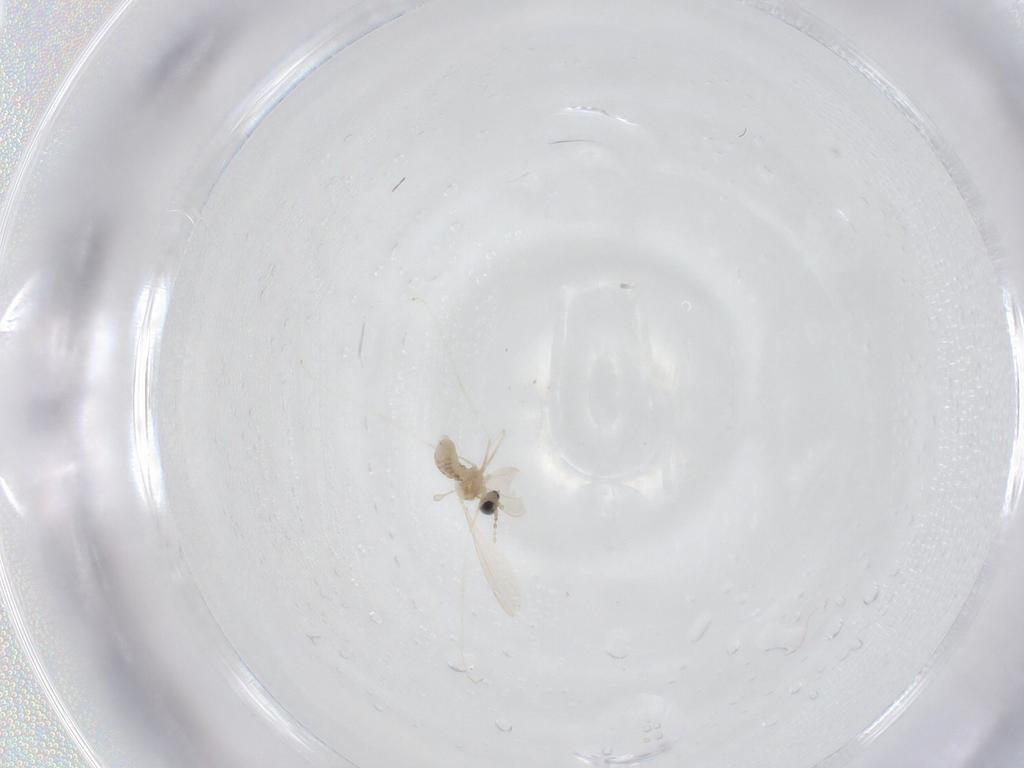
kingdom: Animalia
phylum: Arthropoda
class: Insecta
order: Diptera
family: Cecidomyiidae
